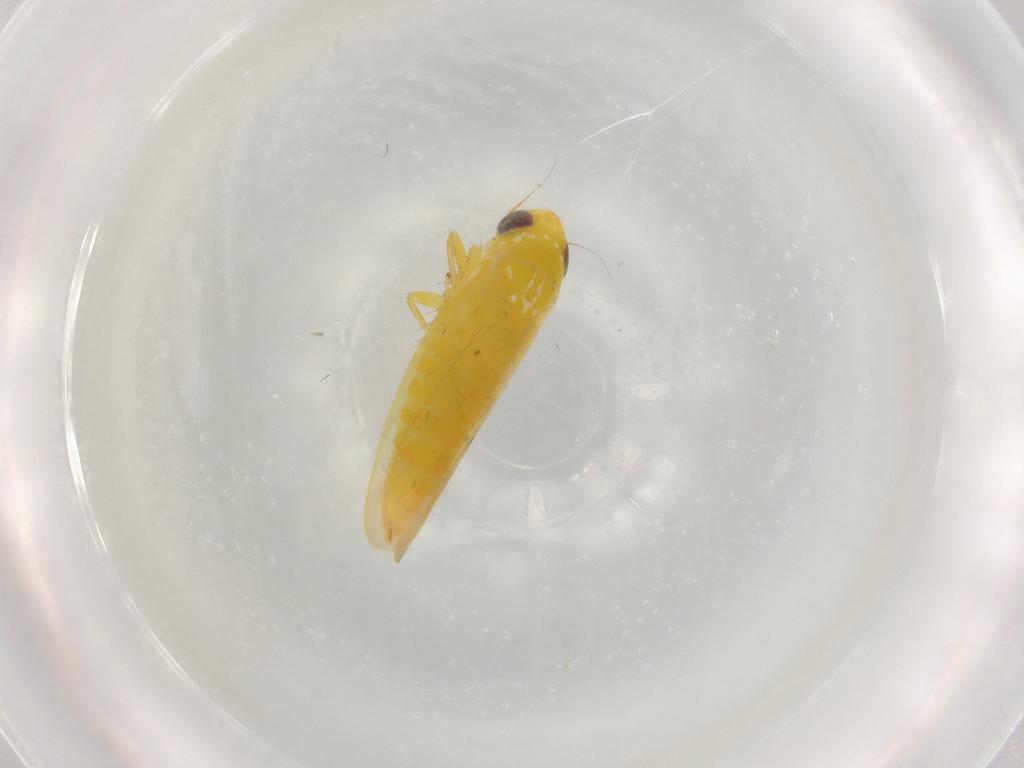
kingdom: Animalia
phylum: Arthropoda
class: Insecta
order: Hemiptera
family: Cicadellidae
